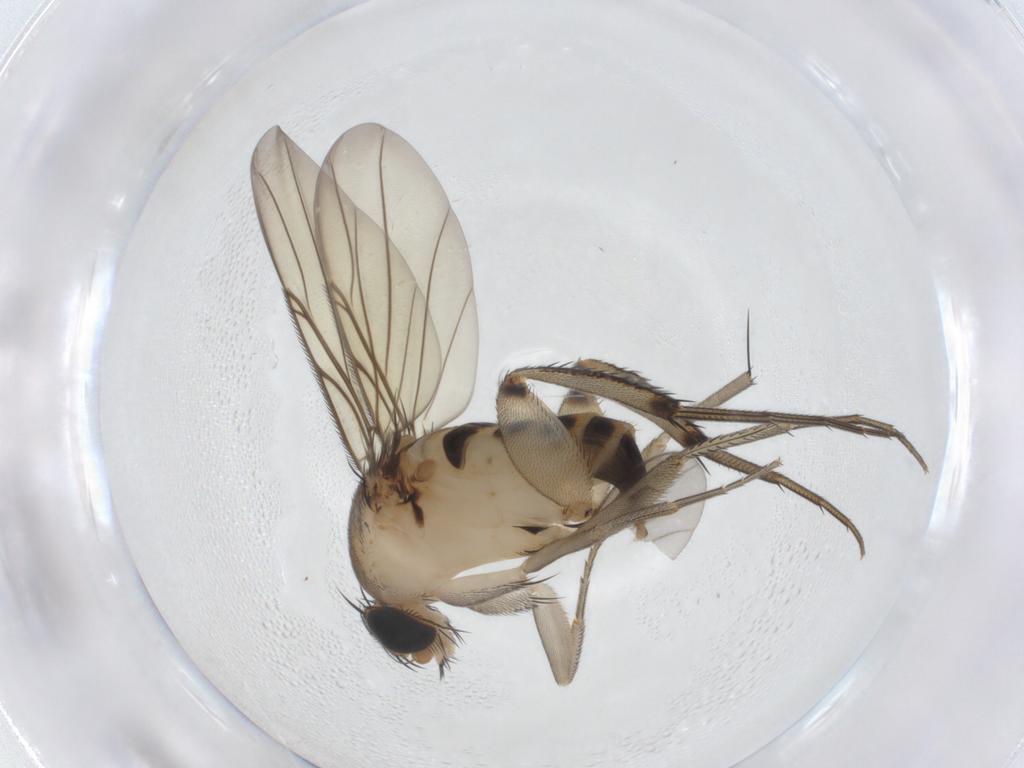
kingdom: Animalia
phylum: Arthropoda
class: Insecta
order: Diptera
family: Phoridae
